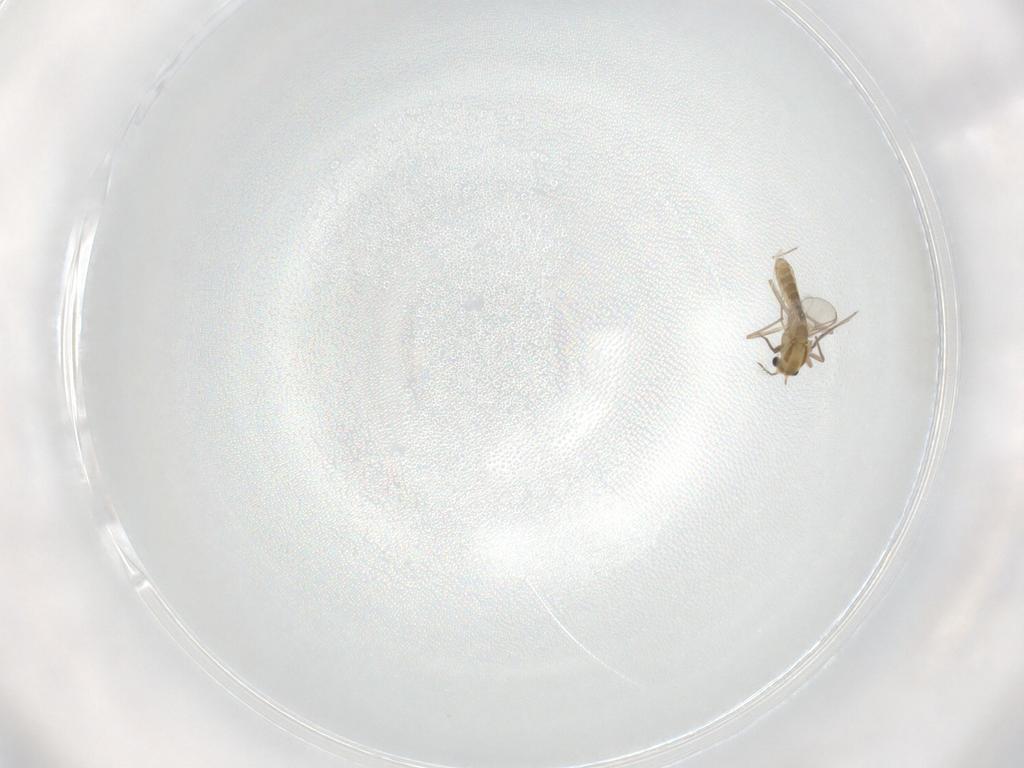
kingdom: Animalia
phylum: Arthropoda
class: Insecta
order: Diptera
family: Chironomidae
